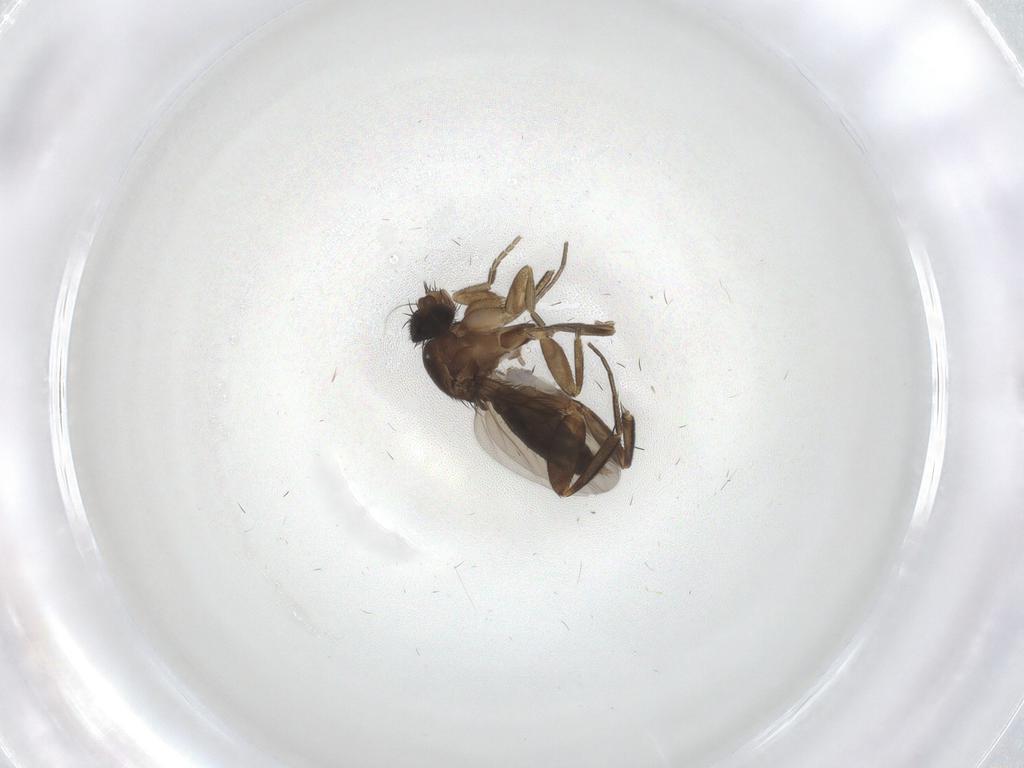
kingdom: Animalia
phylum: Arthropoda
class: Insecta
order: Diptera
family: Phoridae
